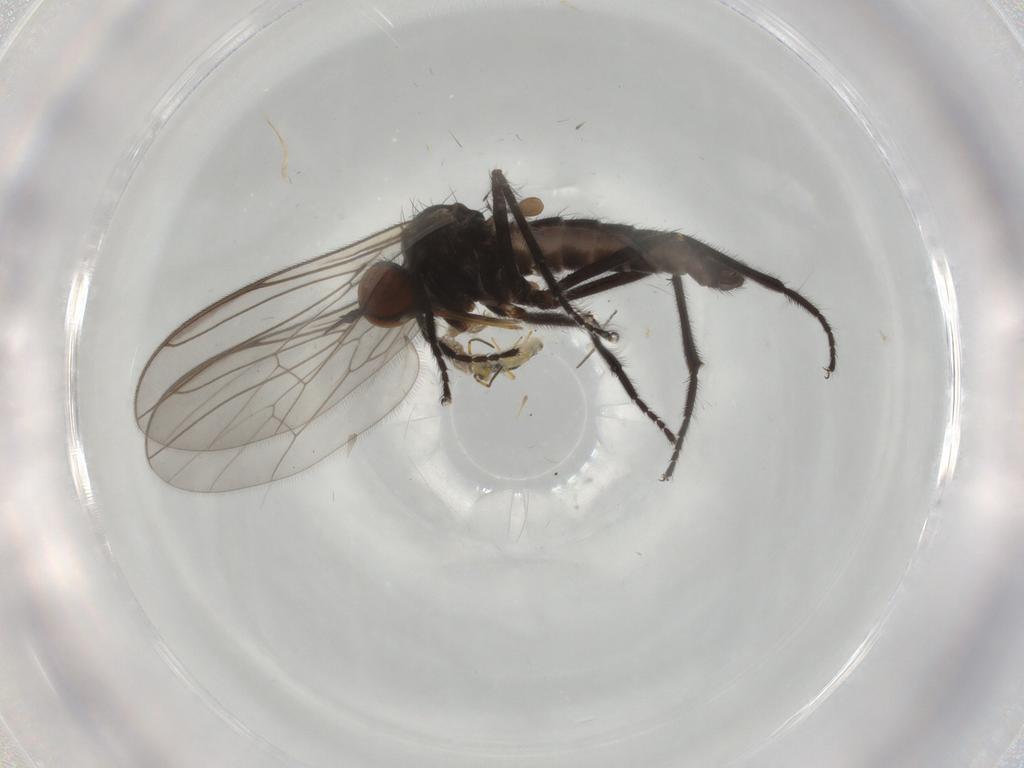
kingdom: Animalia
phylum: Arthropoda
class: Insecta
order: Diptera
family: Empididae
